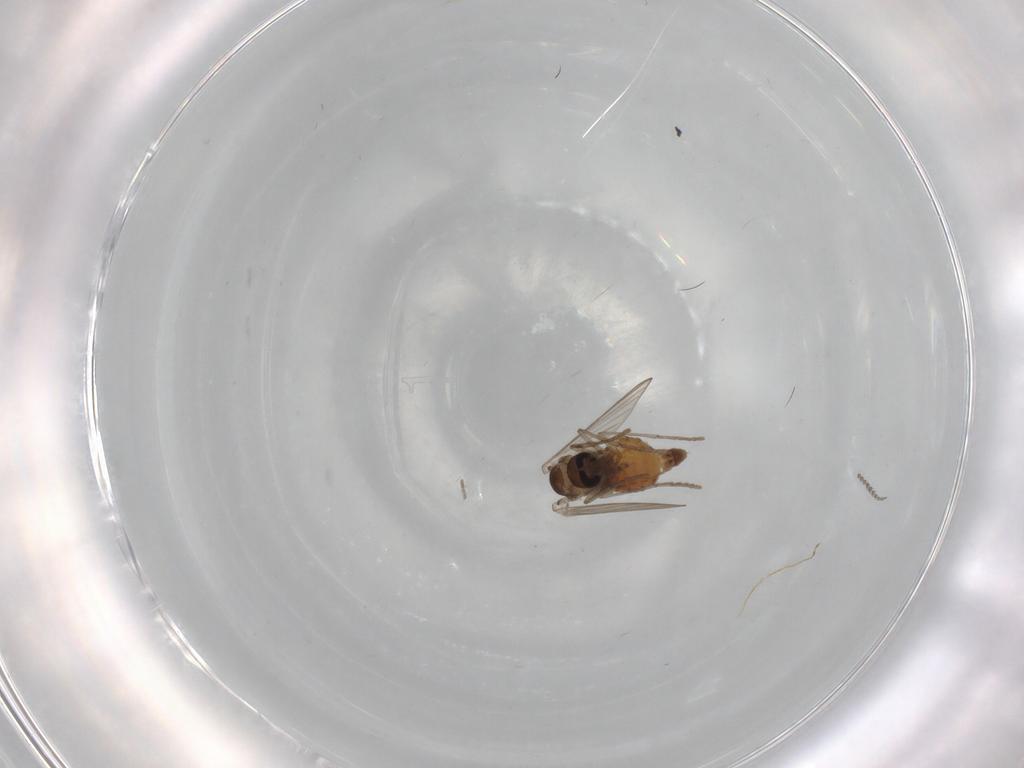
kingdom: Animalia
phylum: Arthropoda
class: Insecta
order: Diptera
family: Psychodidae
